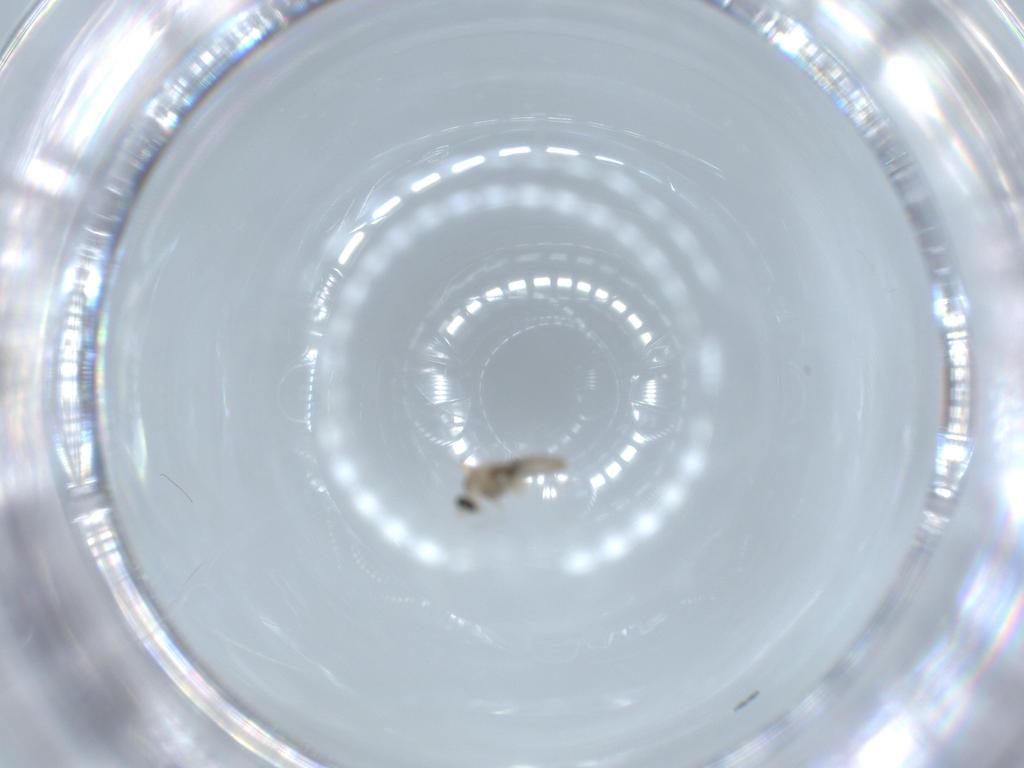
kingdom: Animalia
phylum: Arthropoda
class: Insecta
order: Diptera
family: Cecidomyiidae
